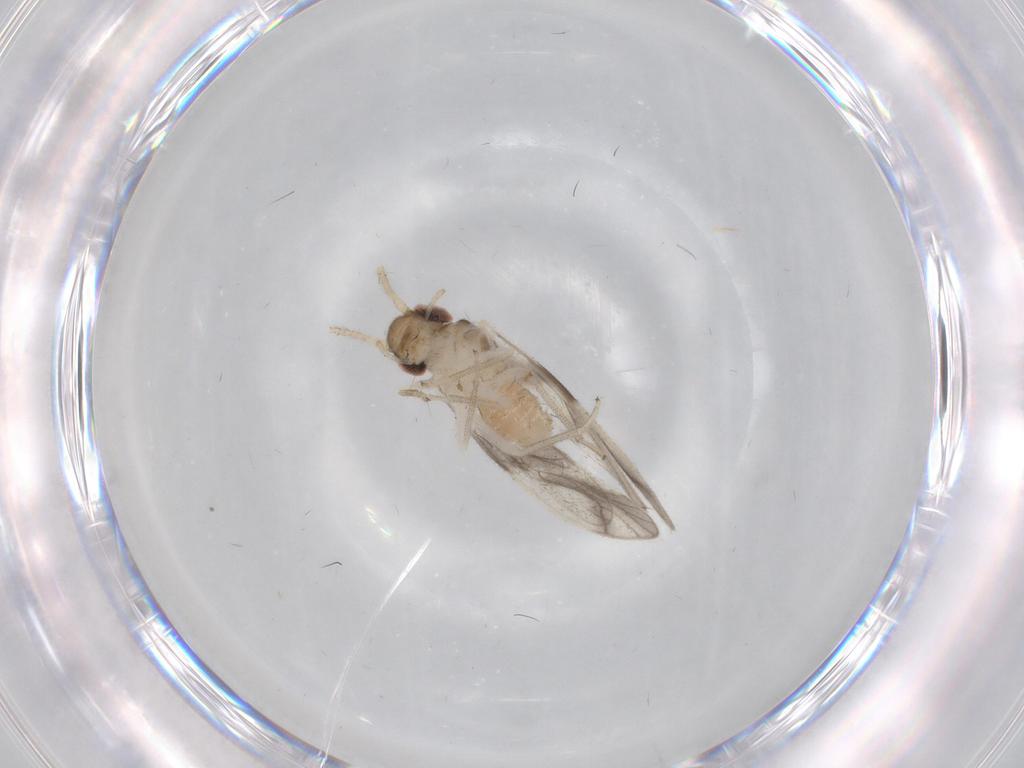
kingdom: Animalia
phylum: Arthropoda
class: Insecta
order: Psocodea
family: Caeciliusidae
